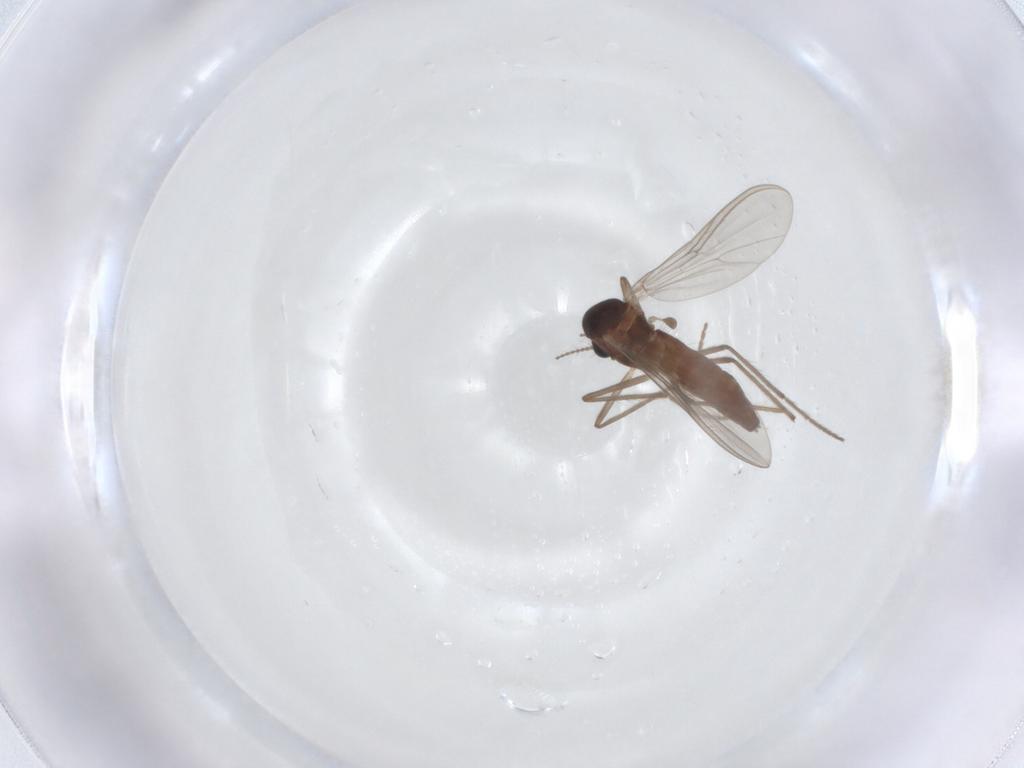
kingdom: Animalia
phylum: Arthropoda
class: Insecta
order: Diptera
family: Chironomidae
